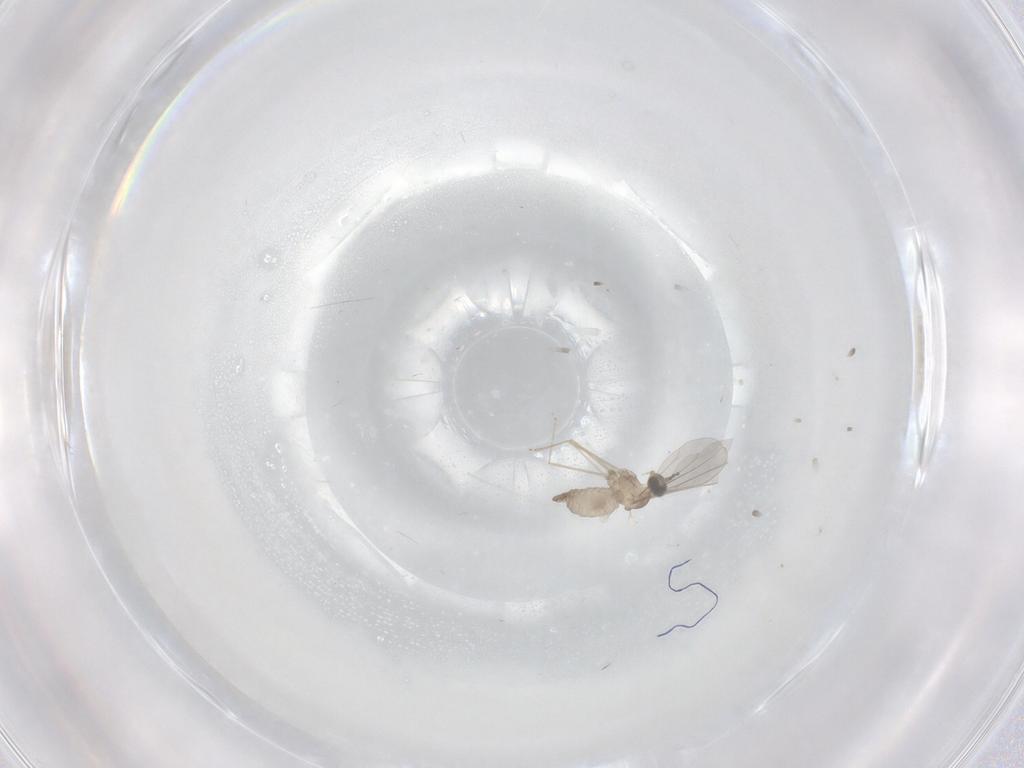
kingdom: Animalia
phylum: Arthropoda
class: Insecta
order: Diptera
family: Cecidomyiidae
